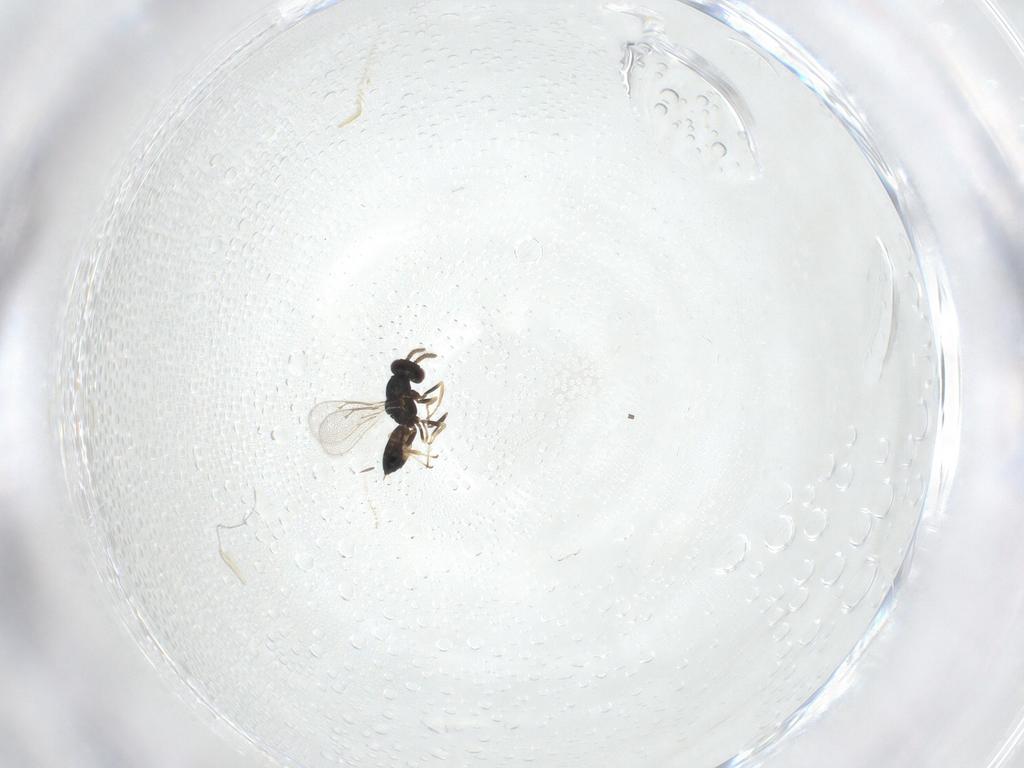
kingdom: Animalia
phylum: Arthropoda
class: Insecta
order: Hymenoptera
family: Eulophidae
